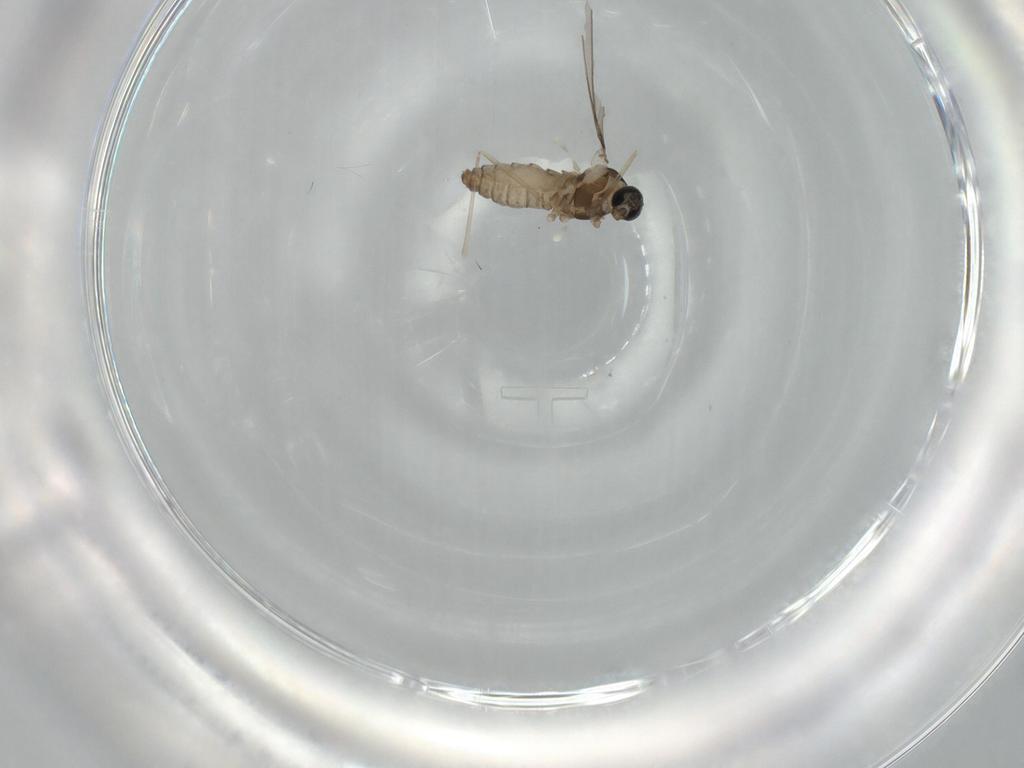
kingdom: Animalia
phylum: Arthropoda
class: Insecta
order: Diptera
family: Cecidomyiidae
